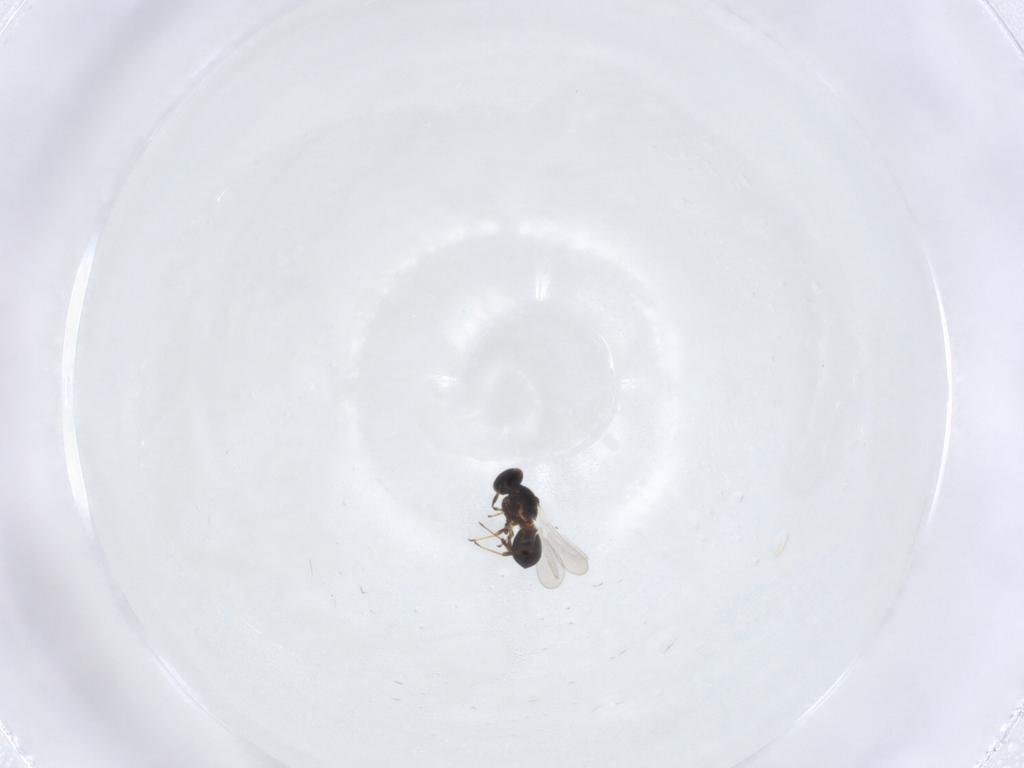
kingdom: Animalia
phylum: Arthropoda
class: Insecta
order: Hymenoptera
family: Platygastridae
